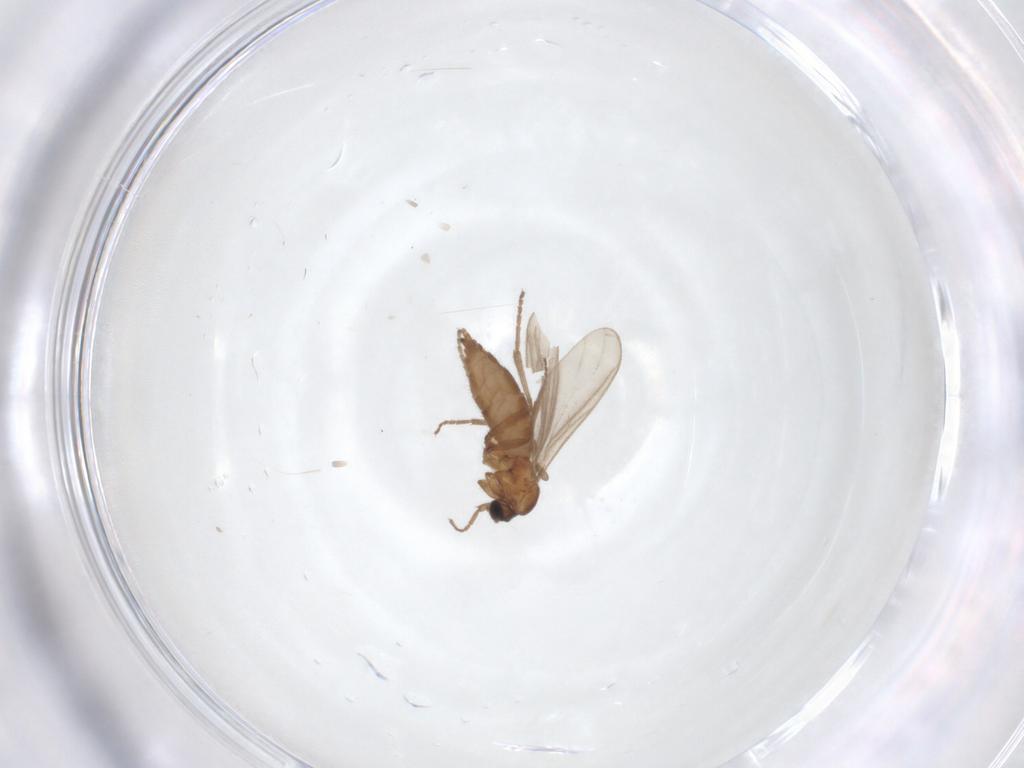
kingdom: Animalia
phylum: Arthropoda
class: Insecta
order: Diptera
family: Sciaridae
